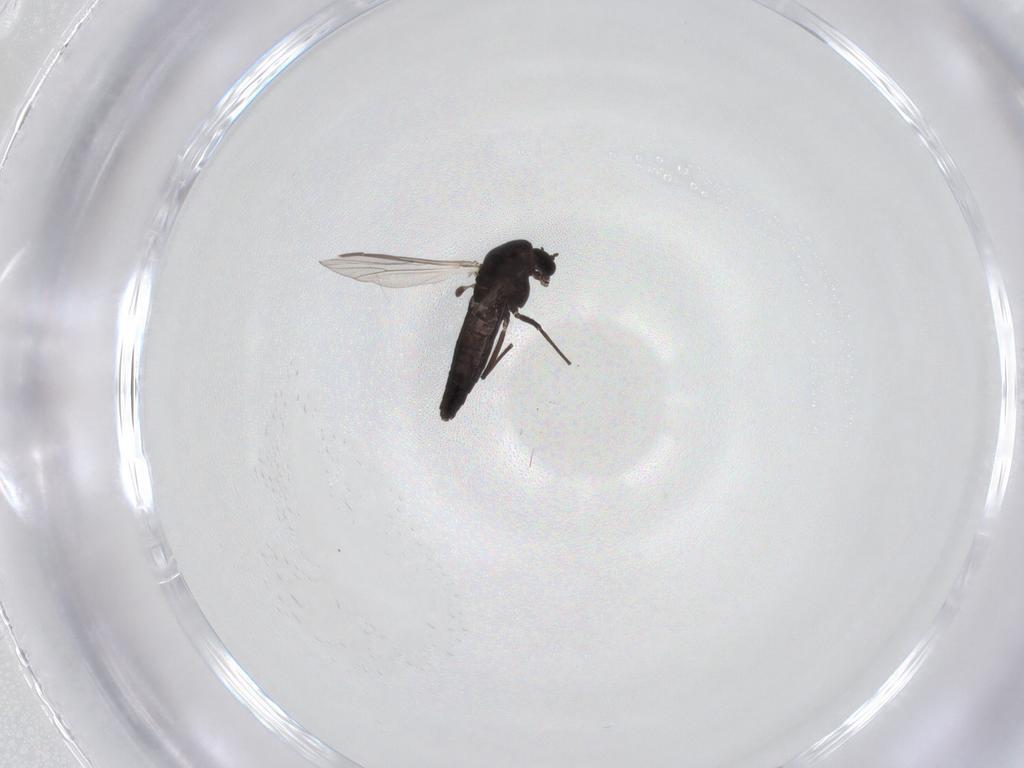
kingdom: Animalia
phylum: Arthropoda
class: Insecta
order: Diptera
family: Chironomidae
